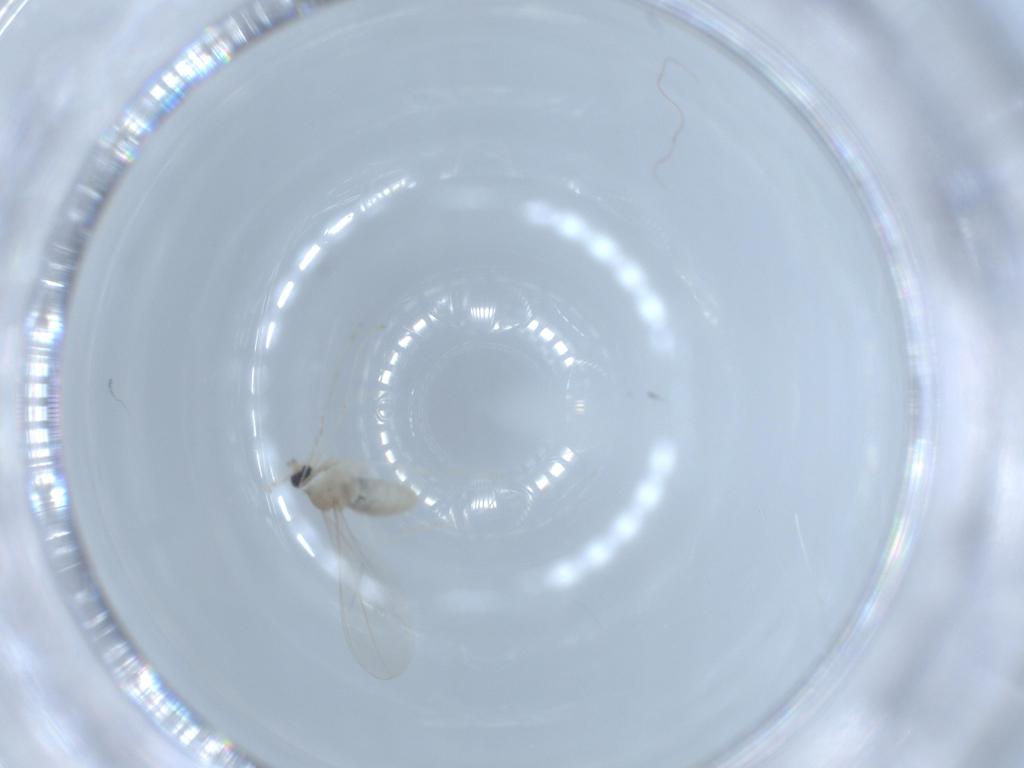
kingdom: Animalia
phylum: Arthropoda
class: Insecta
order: Diptera
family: Cecidomyiidae
